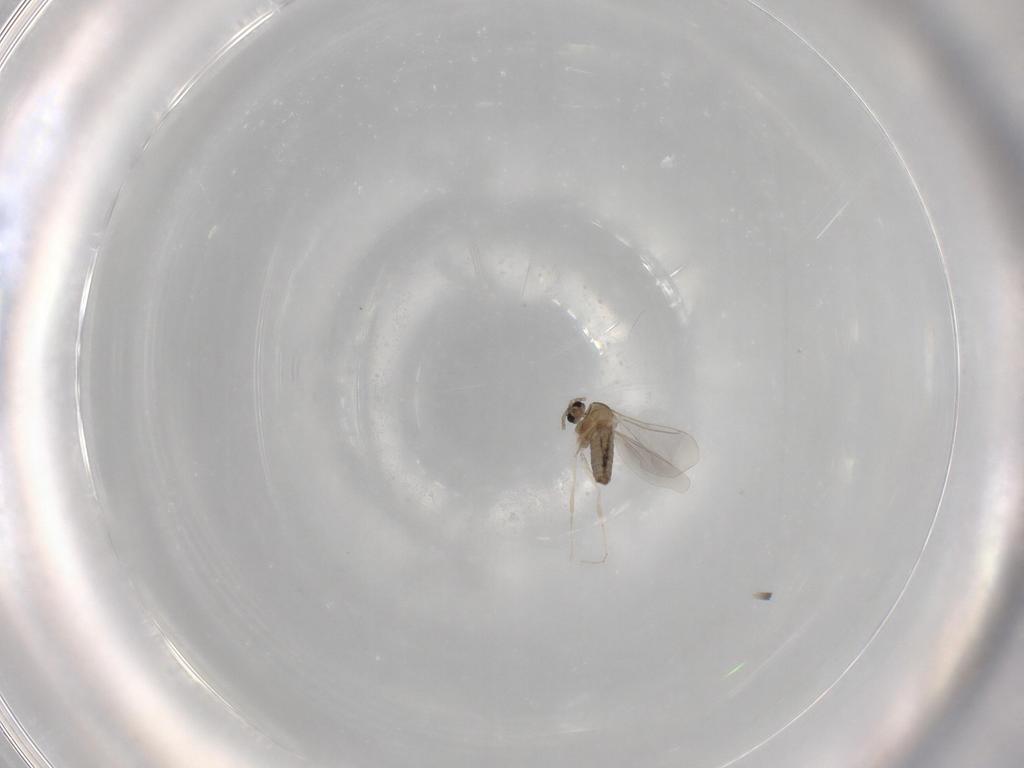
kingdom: Animalia
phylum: Arthropoda
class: Insecta
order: Diptera
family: Cecidomyiidae
